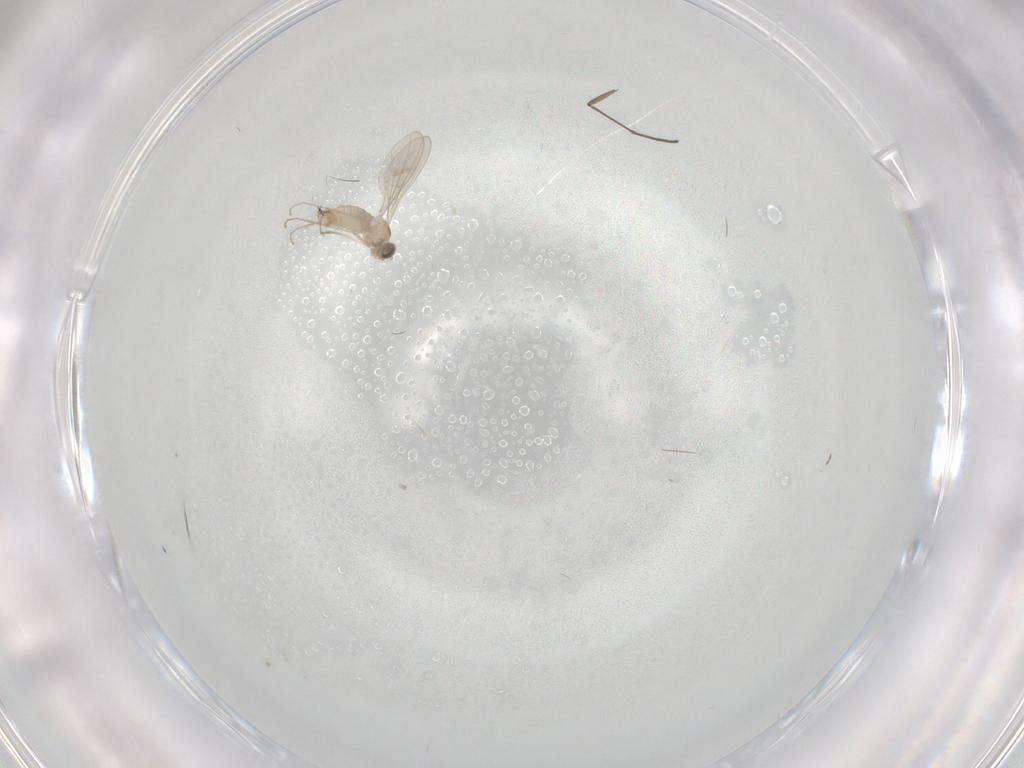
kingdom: Animalia
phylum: Arthropoda
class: Insecta
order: Diptera
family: Sciaridae
